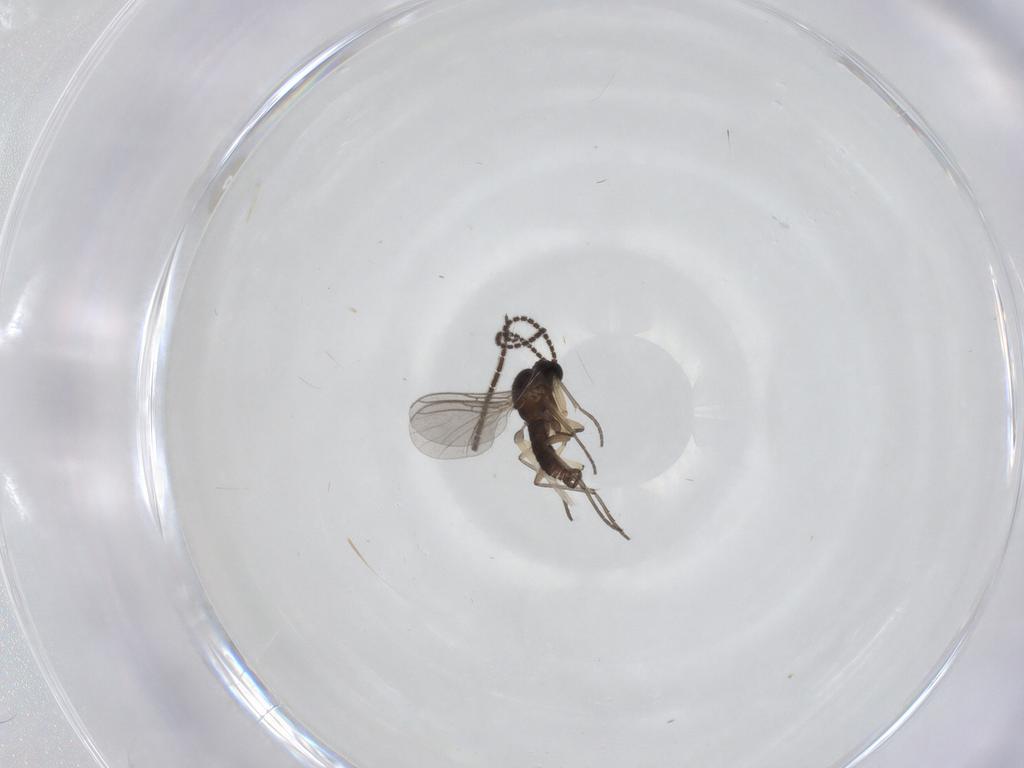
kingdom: Animalia
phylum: Arthropoda
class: Insecta
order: Diptera
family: Sciaridae
